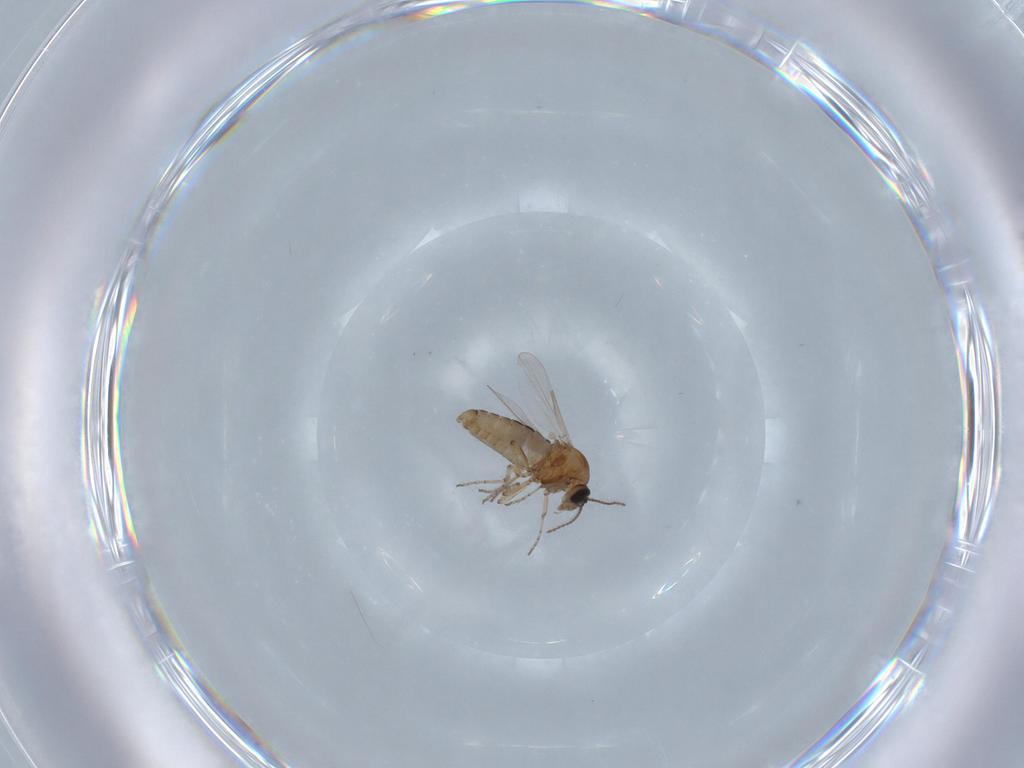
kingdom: Animalia
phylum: Arthropoda
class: Insecta
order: Diptera
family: Ceratopogonidae
